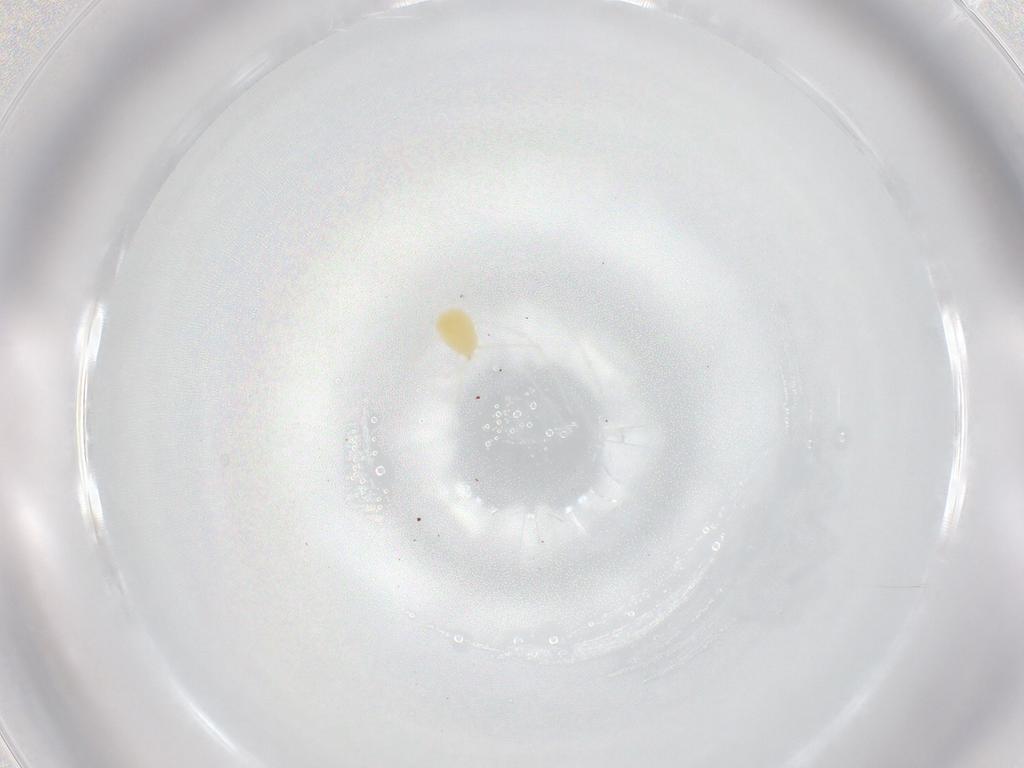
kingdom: Animalia
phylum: Arthropoda
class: Arachnida
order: Trombidiformes
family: Tetranychidae
